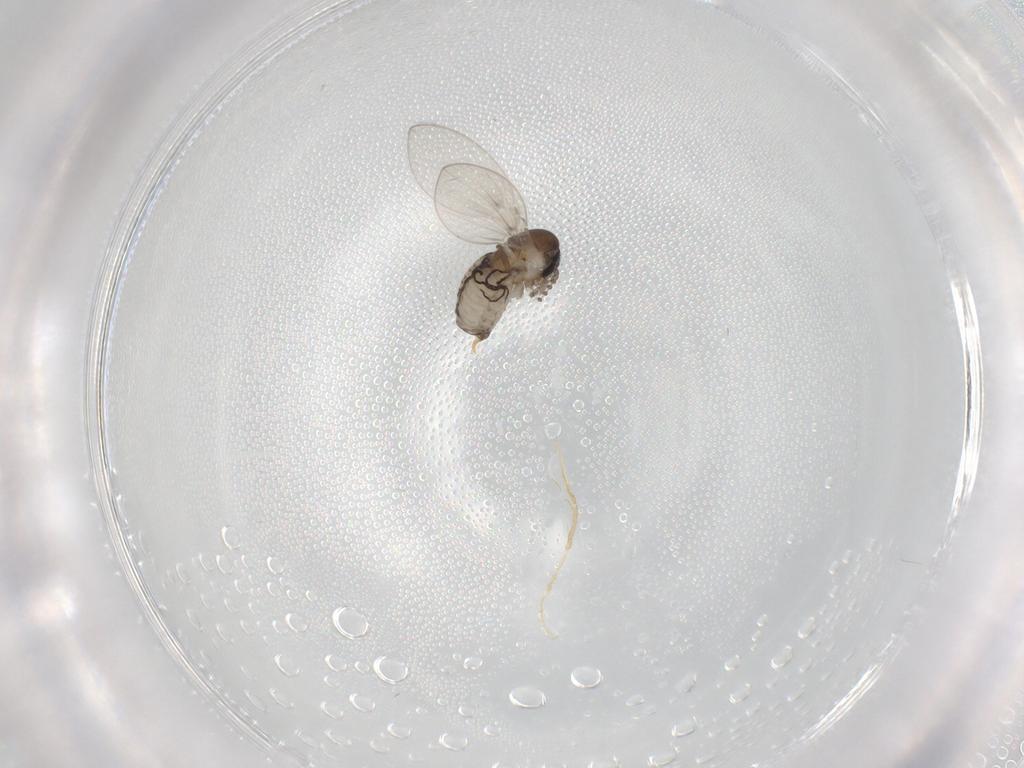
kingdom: Animalia
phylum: Arthropoda
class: Insecta
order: Diptera
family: Psychodidae
